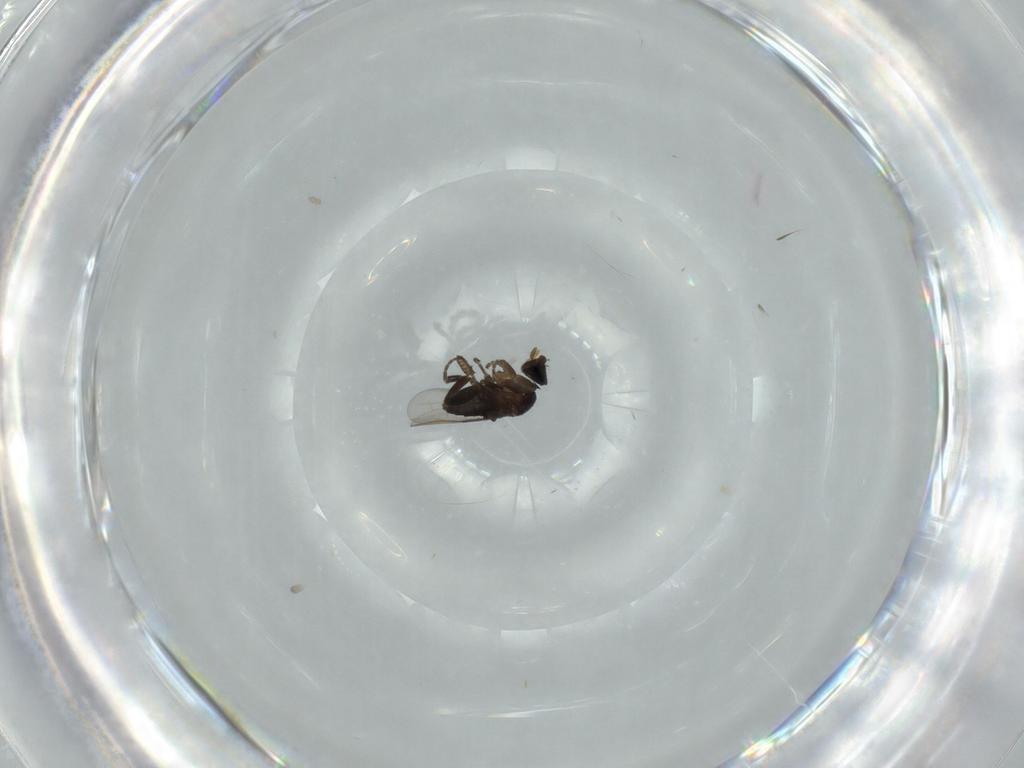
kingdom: Animalia
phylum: Arthropoda
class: Insecta
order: Diptera
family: Phoridae
